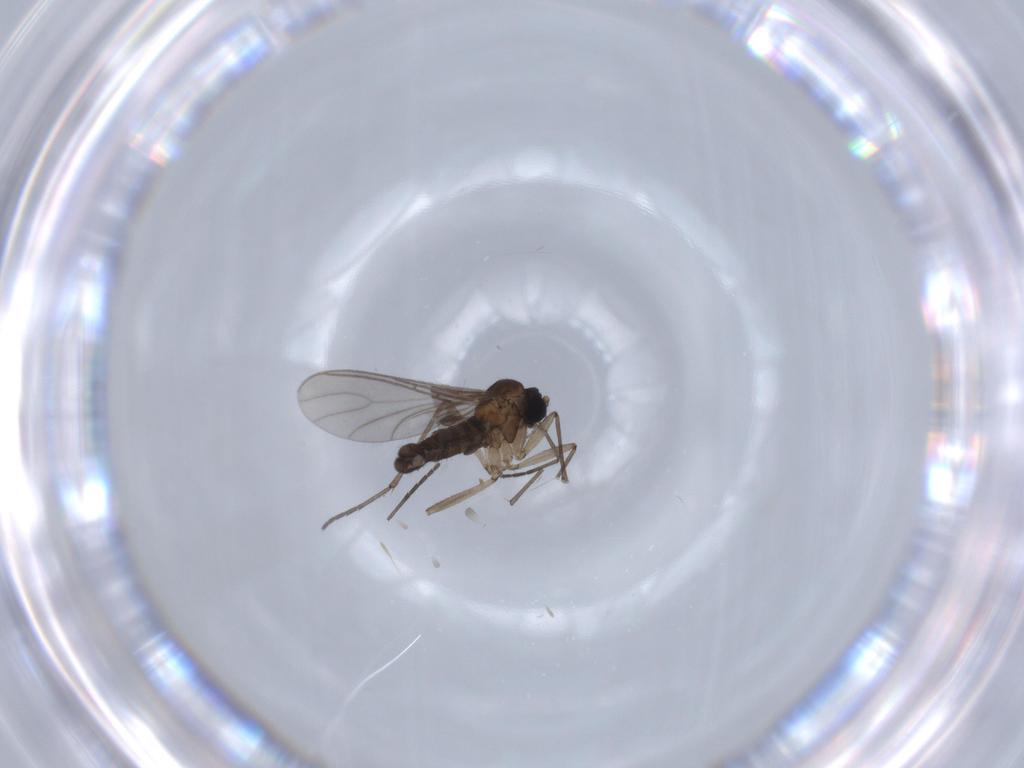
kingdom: Animalia
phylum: Arthropoda
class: Insecta
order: Diptera
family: Sciaridae
